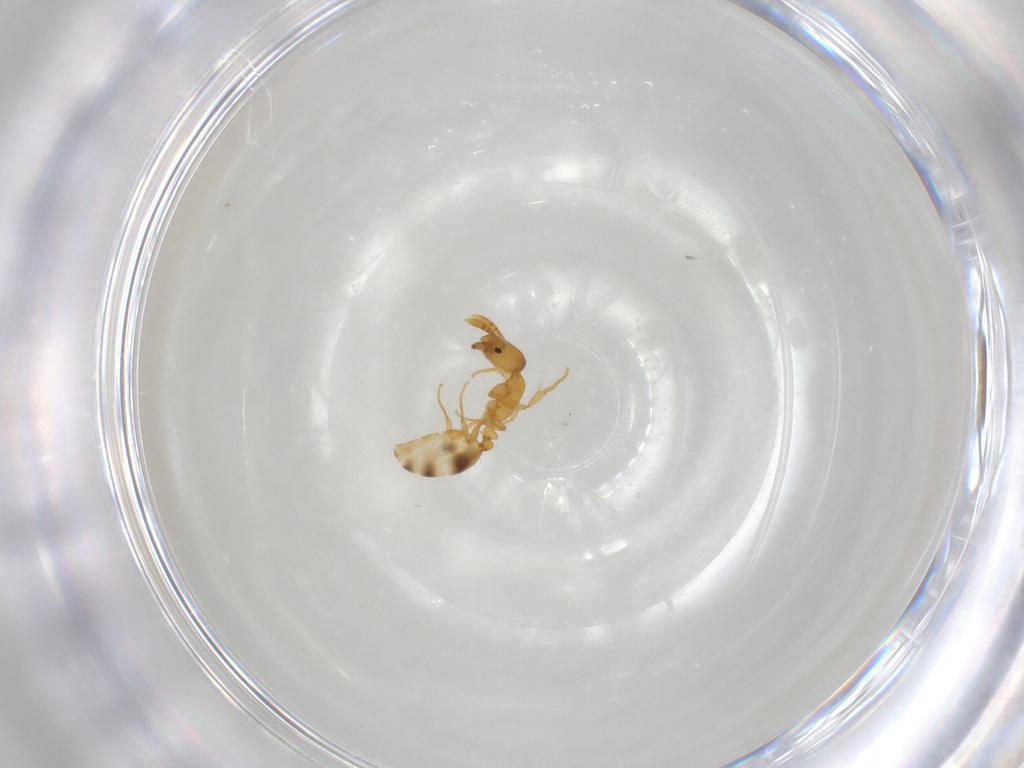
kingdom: Animalia
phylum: Arthropoda
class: Insecta
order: Hymenoptera
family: Formicidae
